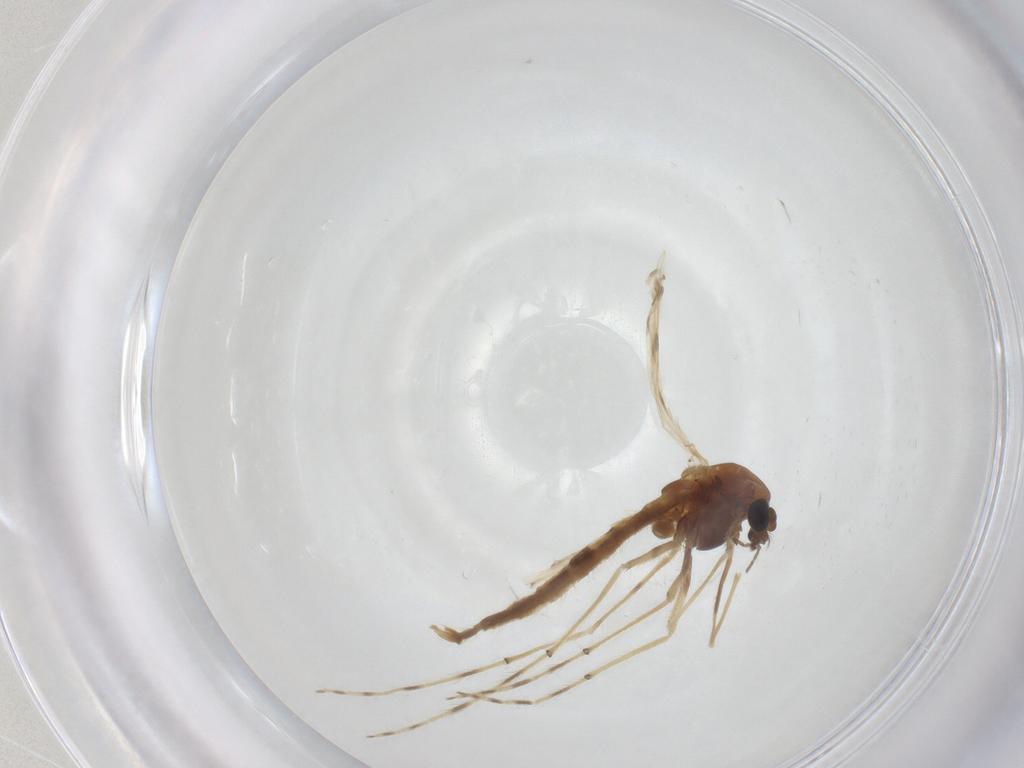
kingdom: Animalia
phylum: Arthropoda
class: Insecta
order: Diptera
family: Chironomidae
